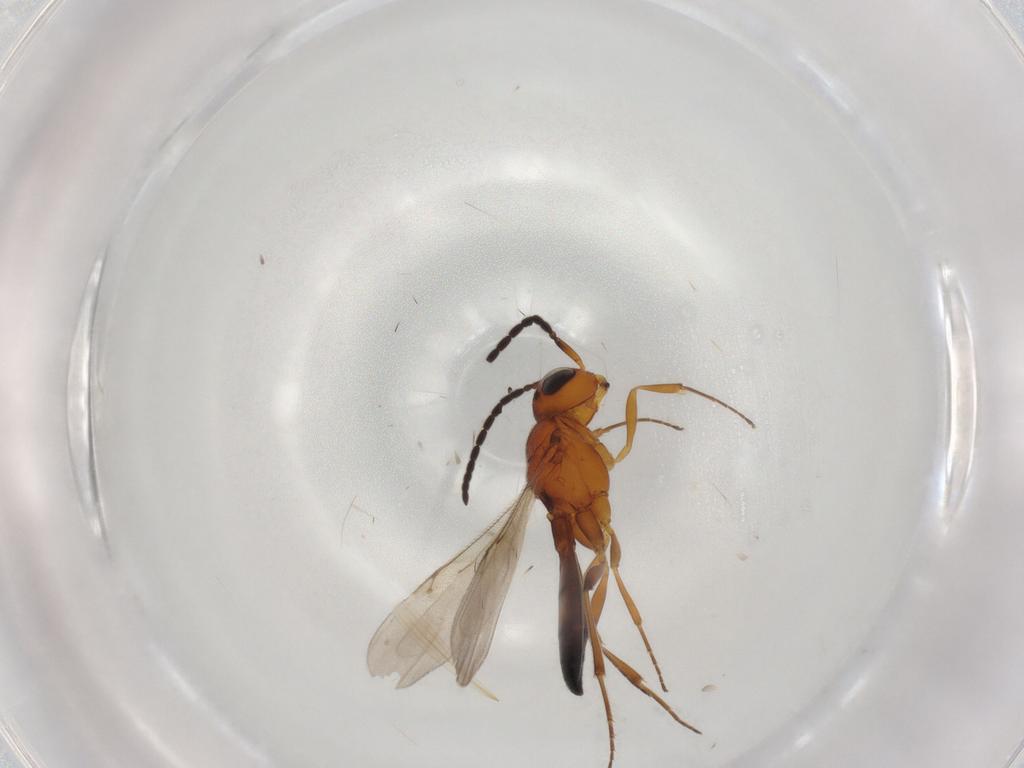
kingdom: Animalia
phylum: Arthropoda
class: Insecta
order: Hymenoptera
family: Scelionidae
